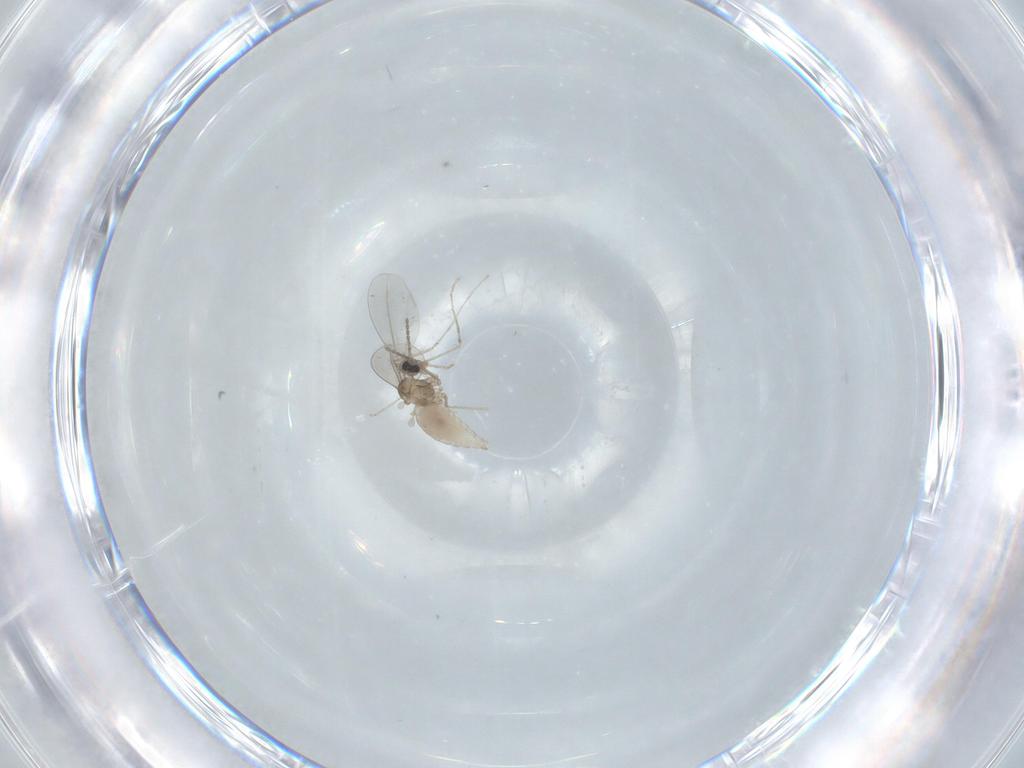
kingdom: Animalia
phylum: Arthropoda
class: Insecta
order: Diptera
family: Cecidomyiidae
